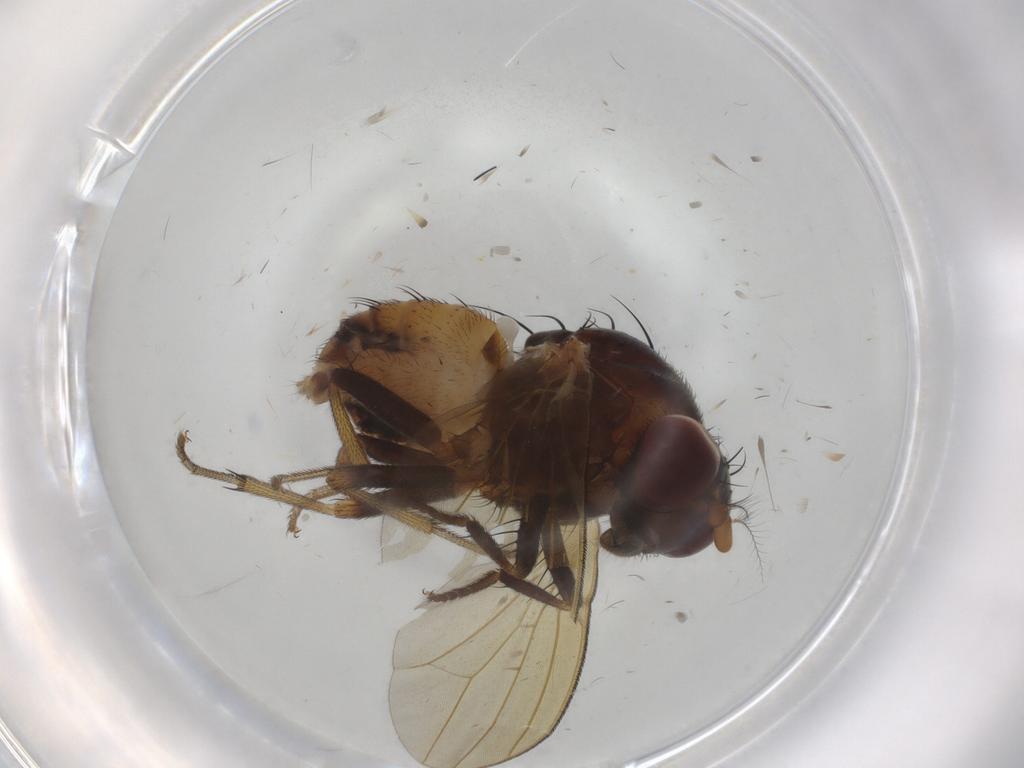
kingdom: Animalia
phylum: Arthropoda
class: Insecta
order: Diptera
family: Lauxaniidae
